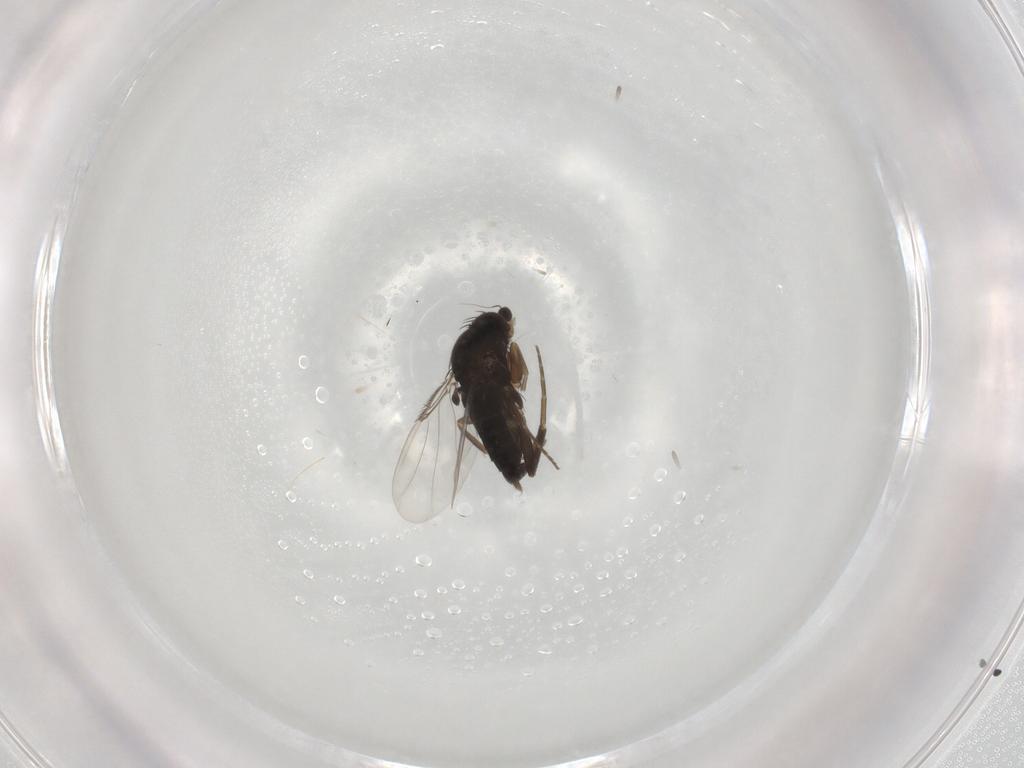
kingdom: Animalia
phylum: Arthropoda
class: Insecta
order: Diptera
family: Phoridae
